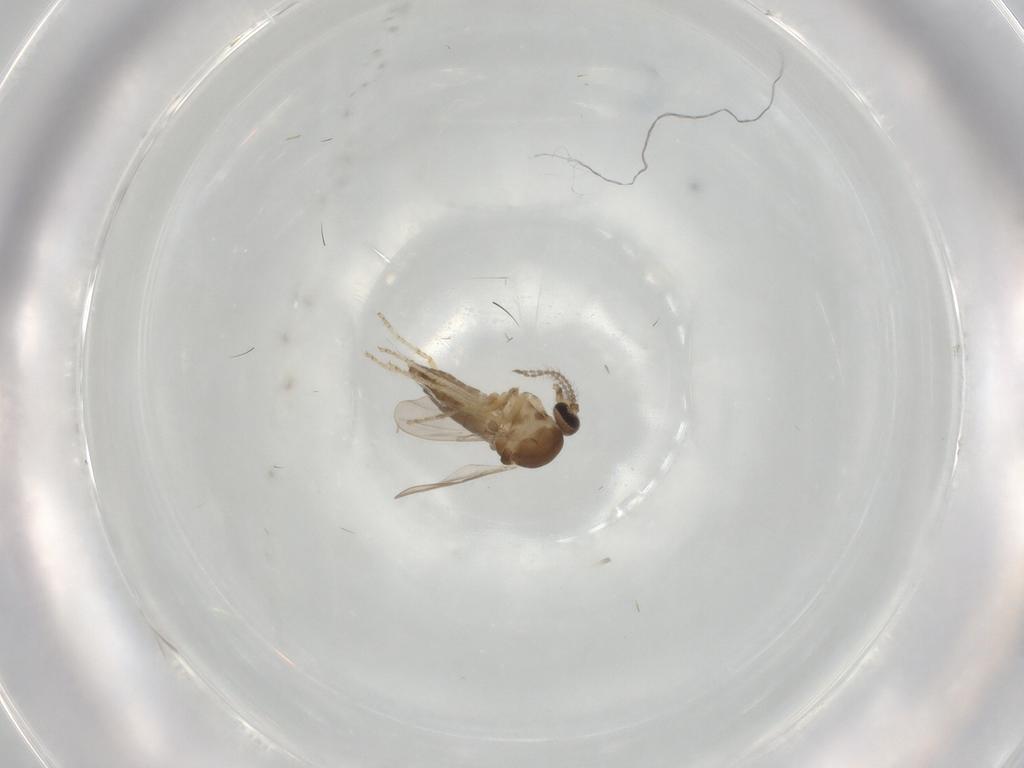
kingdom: Animalia
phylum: Arthropoda
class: Insecta
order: Diptera
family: Ceratopogonidae
